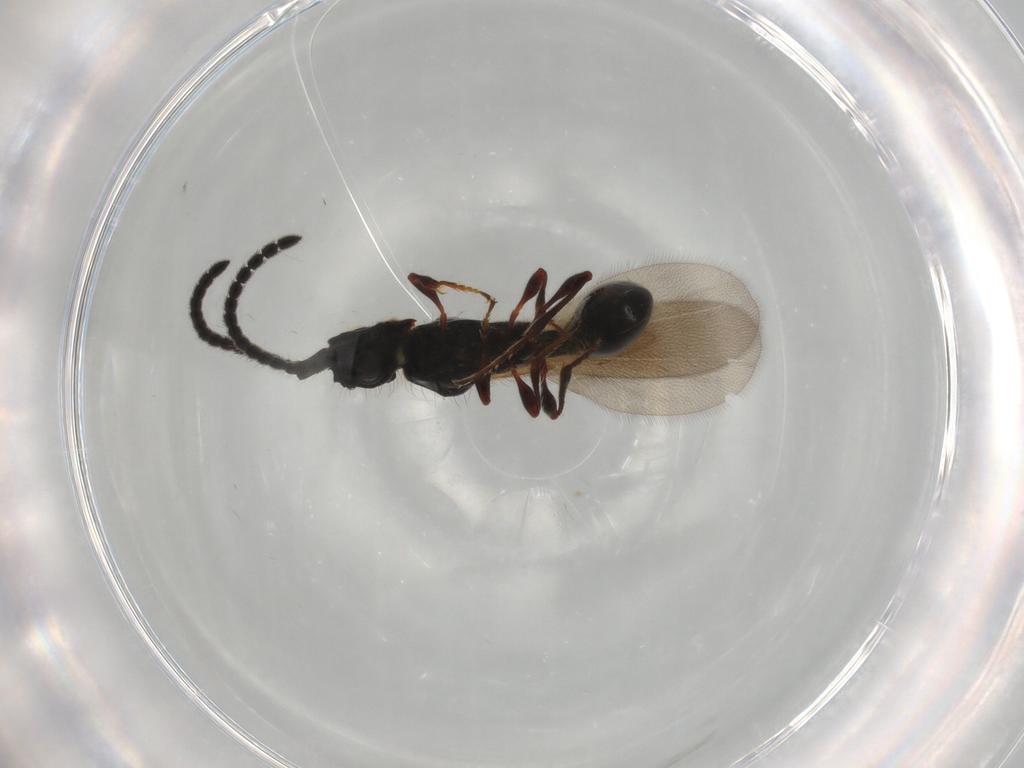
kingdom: Animalia
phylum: Arthropoda
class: Insecta
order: Hymenoptera
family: Diapriidae
